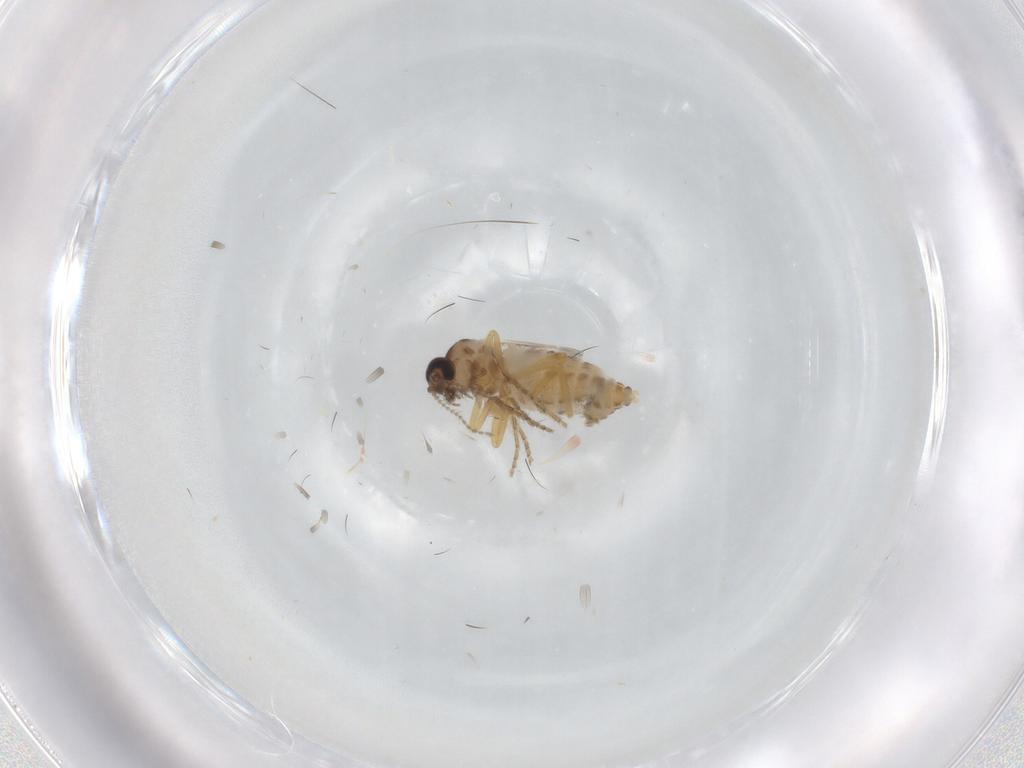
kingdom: Animalia
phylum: Arthropoda
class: Insecta
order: Diptera
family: Ceratopogonidae
